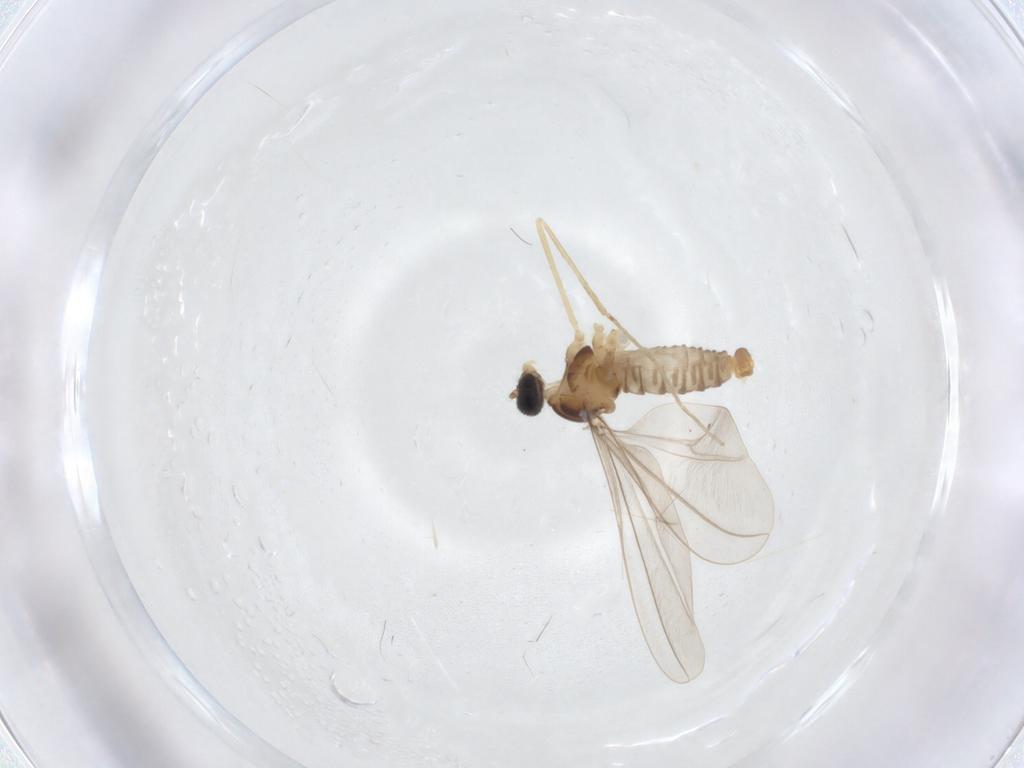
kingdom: Animalia
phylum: Arthropoda
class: Insecta
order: Diptera
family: Cecidomyiidae
